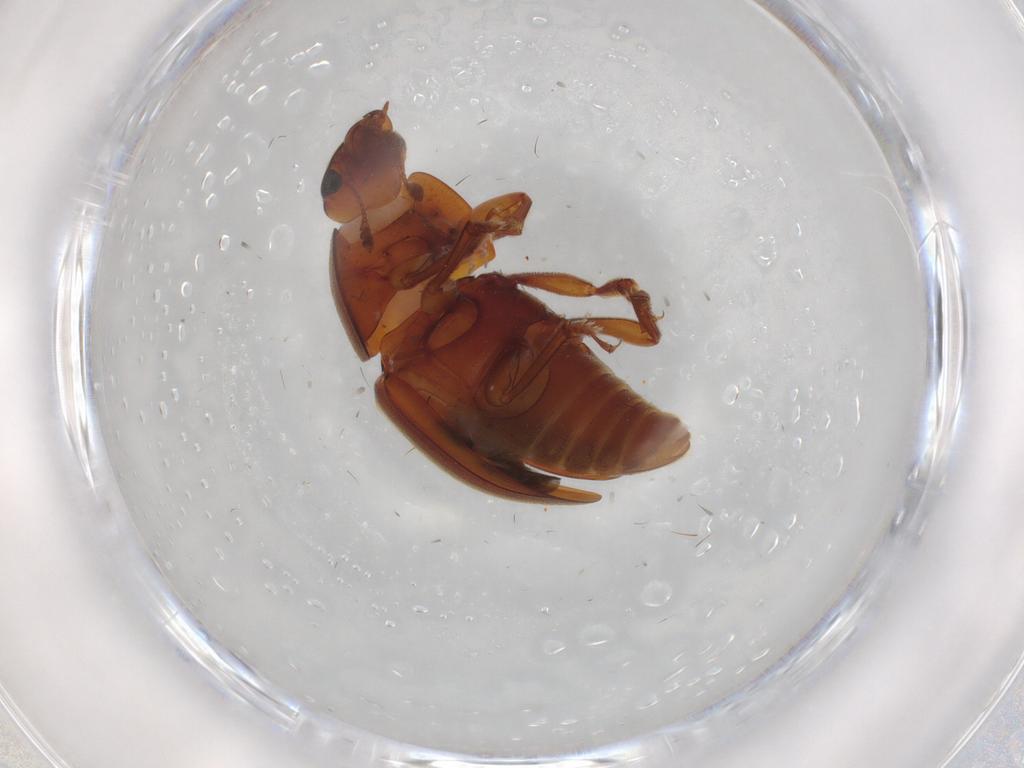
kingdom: Animalia
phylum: Arthropoda
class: Insecta
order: Coleoptera
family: Nitidulidae
